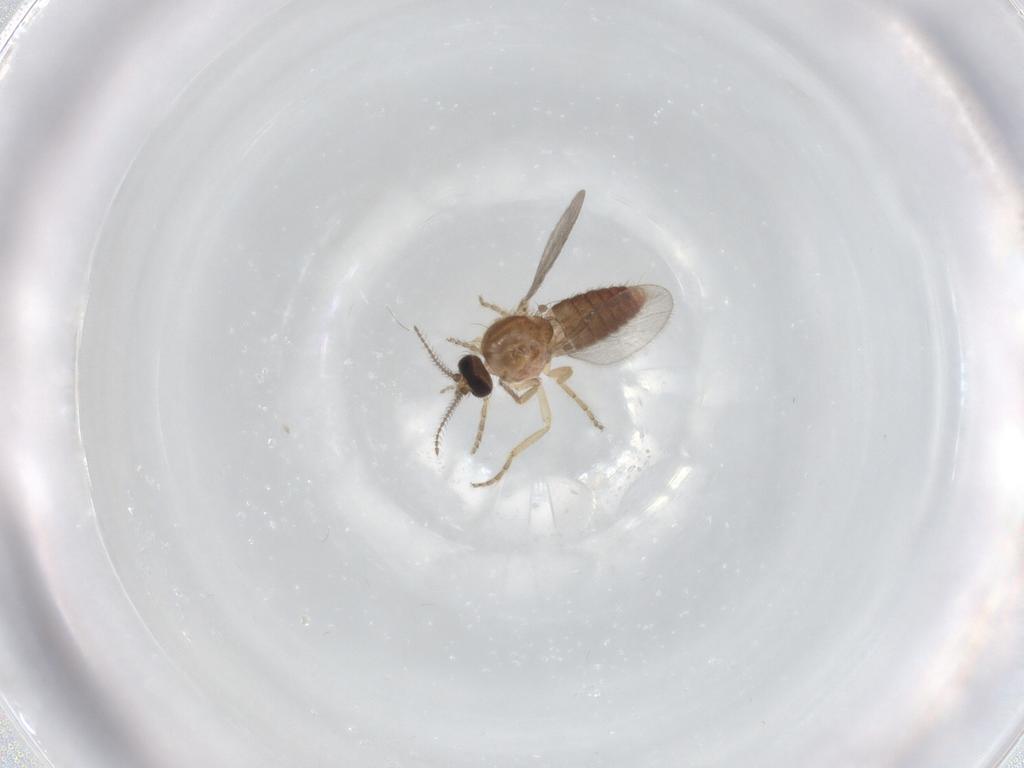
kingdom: Animalia
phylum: Arthropoda
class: Insecta
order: Diptera
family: Ceratopogonidae
